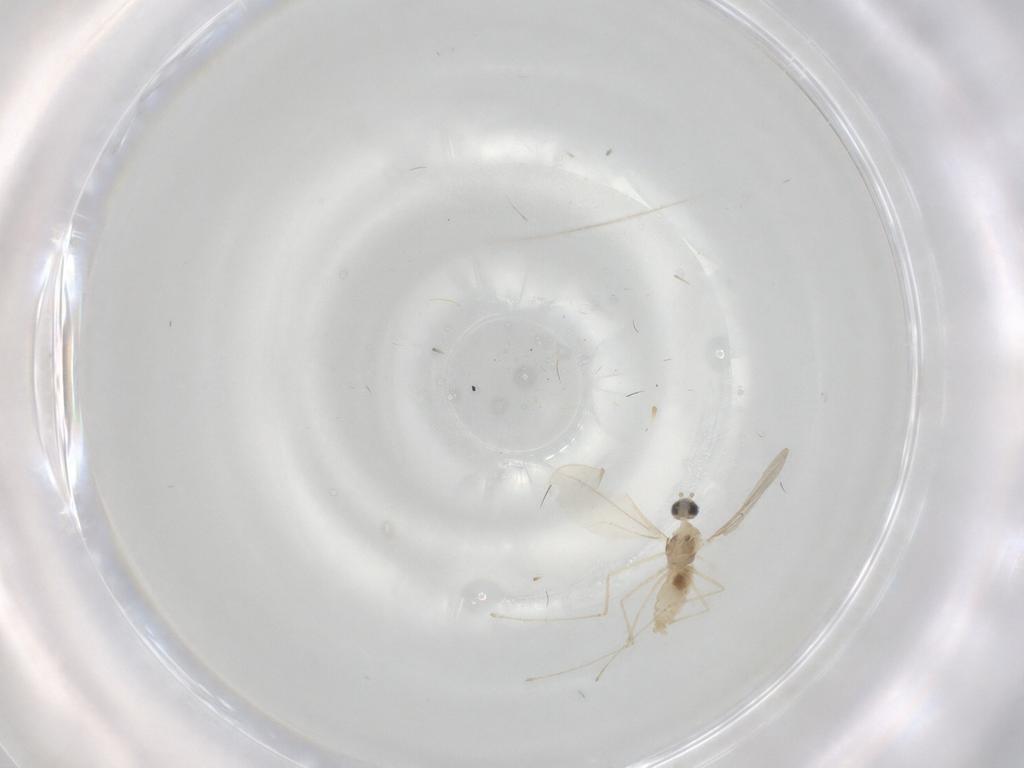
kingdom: Animalia
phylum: Arthropoda
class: Insecta
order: Diptera
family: Cecidomyiidae
